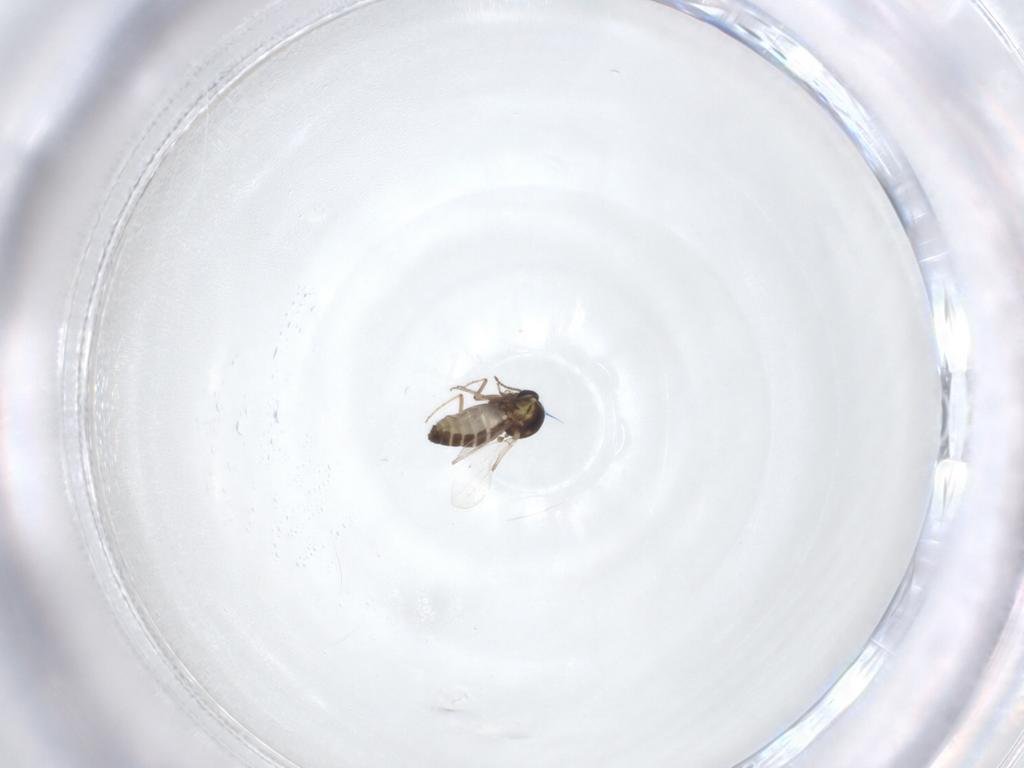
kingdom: Animalia
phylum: Arthropoda
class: Insecta
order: Diptera
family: Ceratopogonidae
